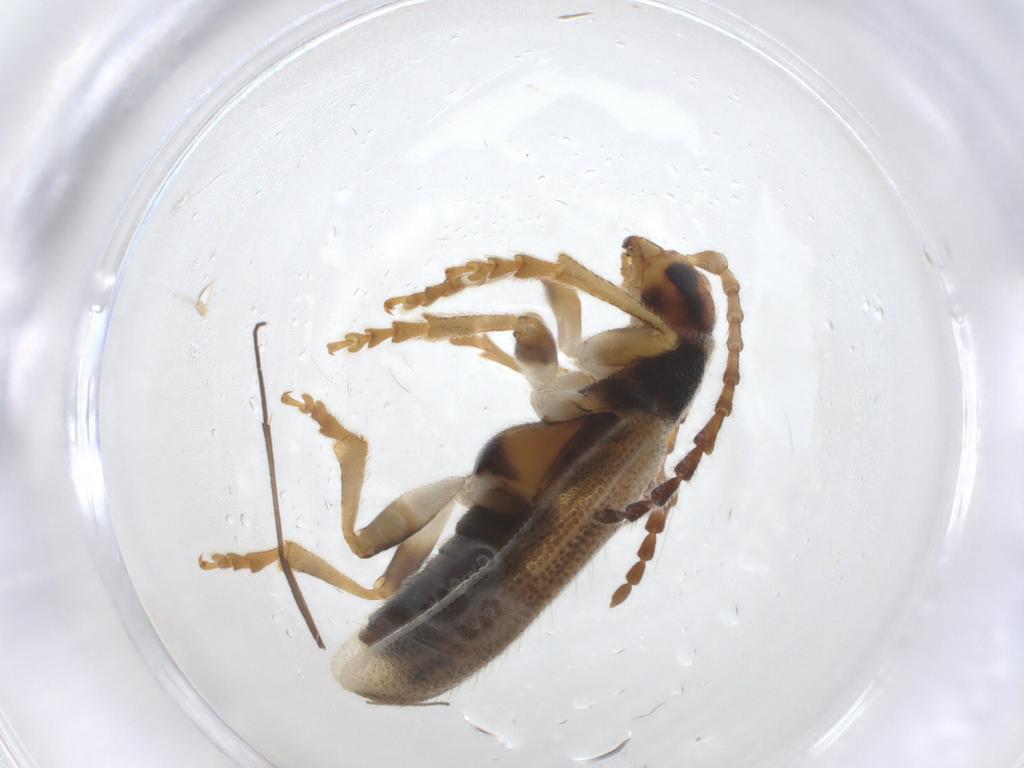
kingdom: Animalia
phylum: Arthropoda
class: Insecta
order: Coleoptera
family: Chrysomelidae
